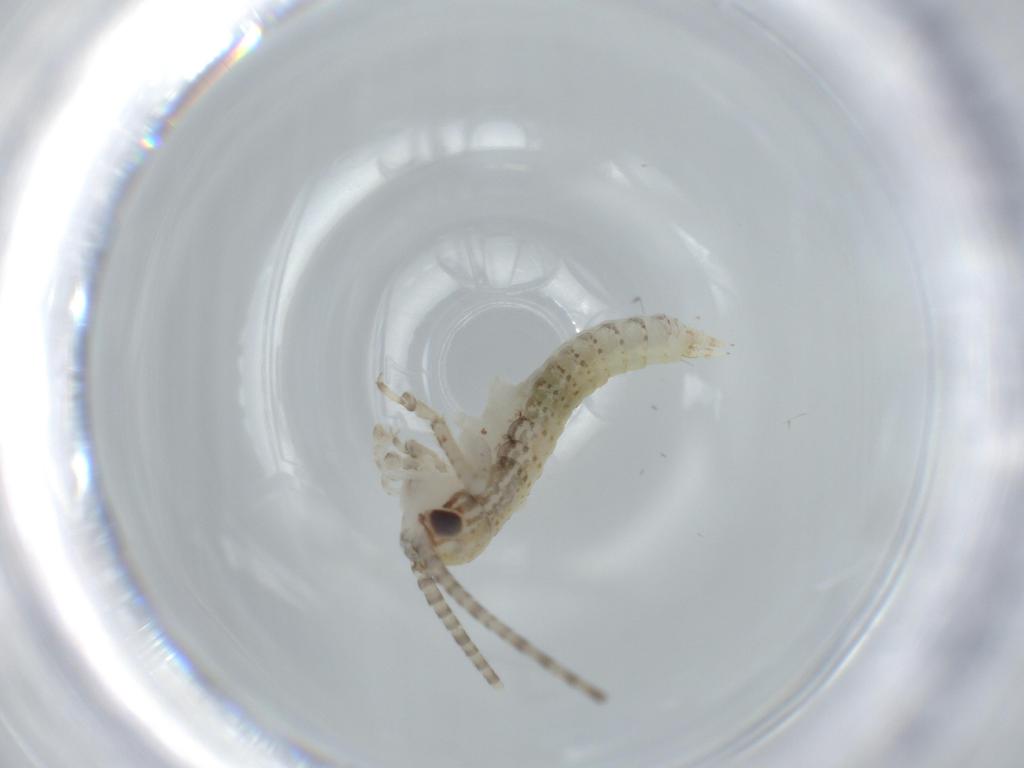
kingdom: Animalia
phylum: Arthropoda
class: Insecta
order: Orthoptera
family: Gryllidae
